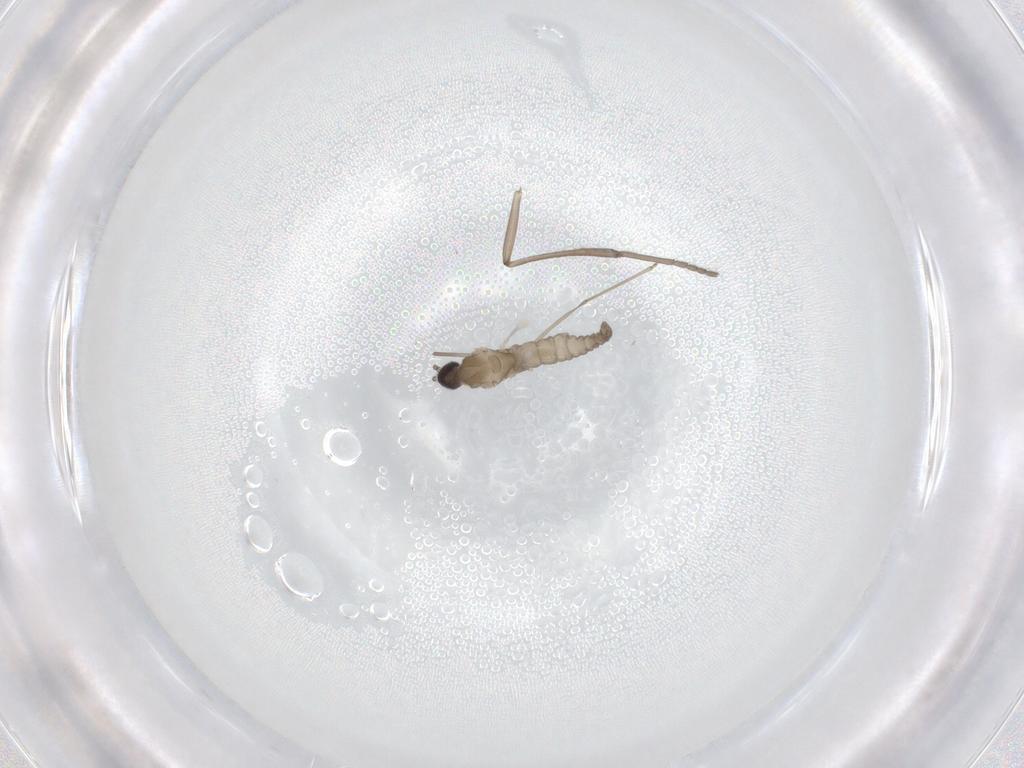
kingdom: Animalia
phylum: Arthropoda
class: Insecta
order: Diptera
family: Cecidomyiidae
